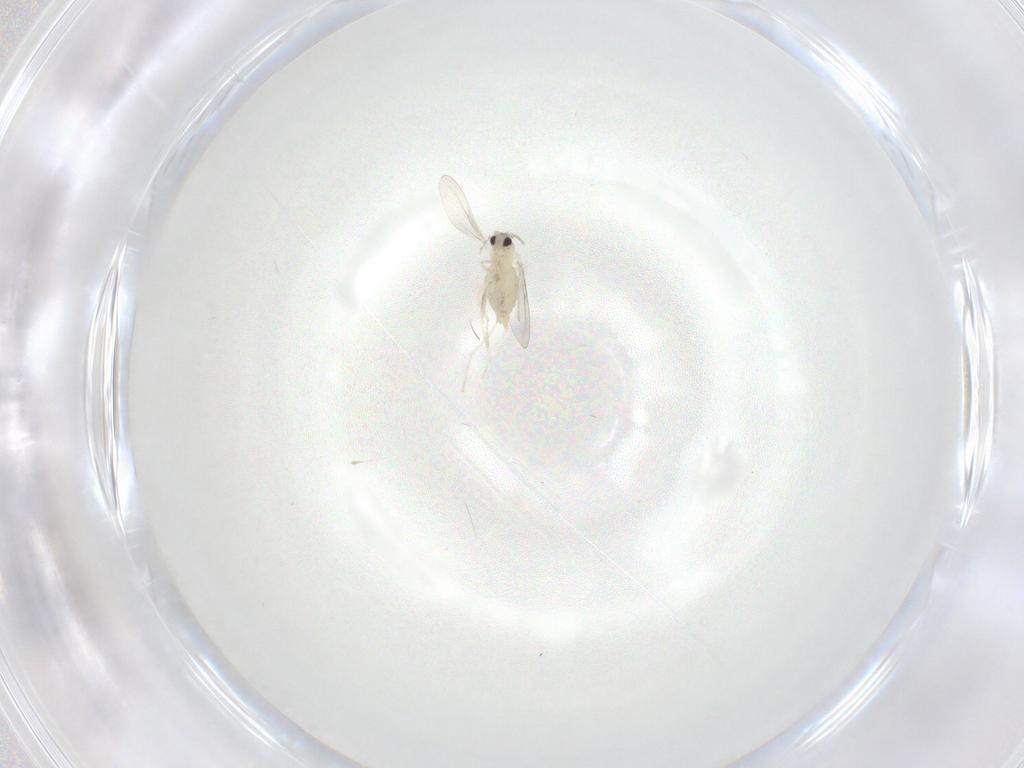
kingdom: Animalia
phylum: Arthropoda
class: Insecta
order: Diptera
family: Cecidomyiidae
